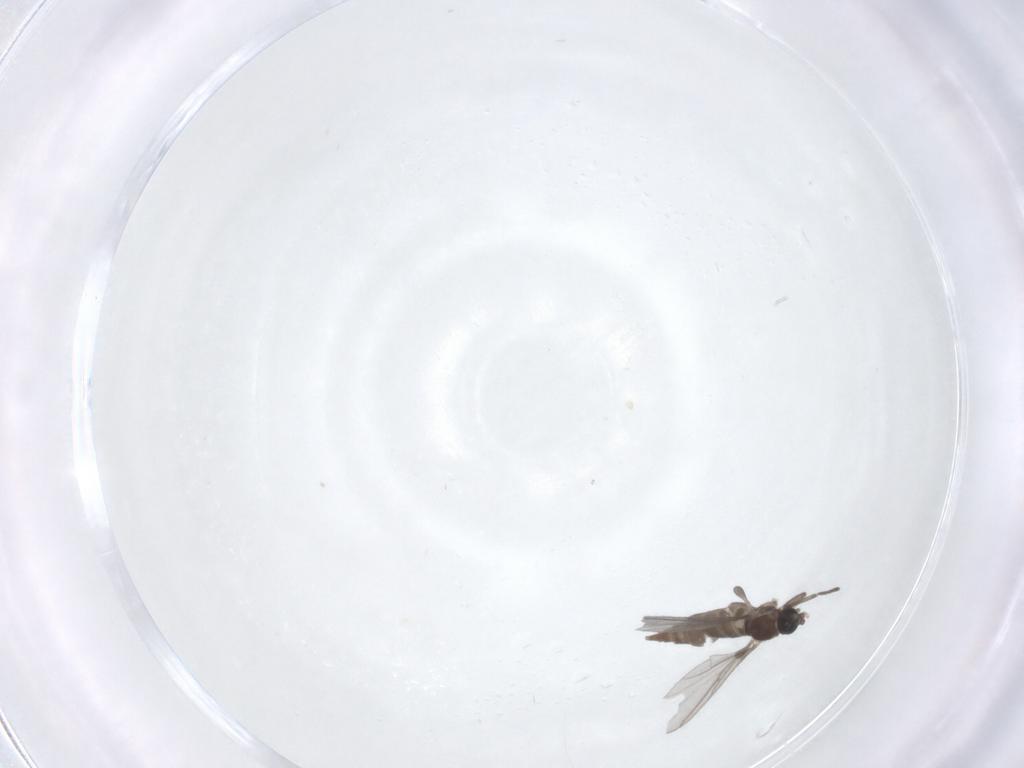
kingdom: Animalia
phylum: Arthropoda
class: Insecta
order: Diptera
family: Sciaridae
